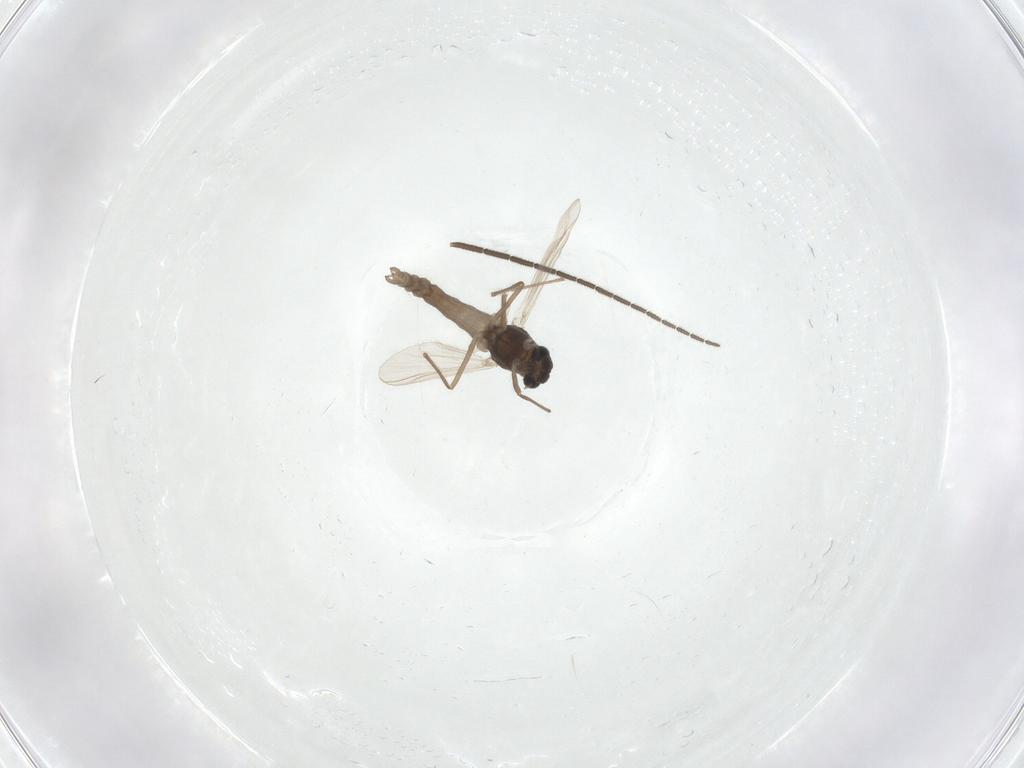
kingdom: Animalia
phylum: Arthropoda
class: Insecta
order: Diptera
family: Chironomidae
